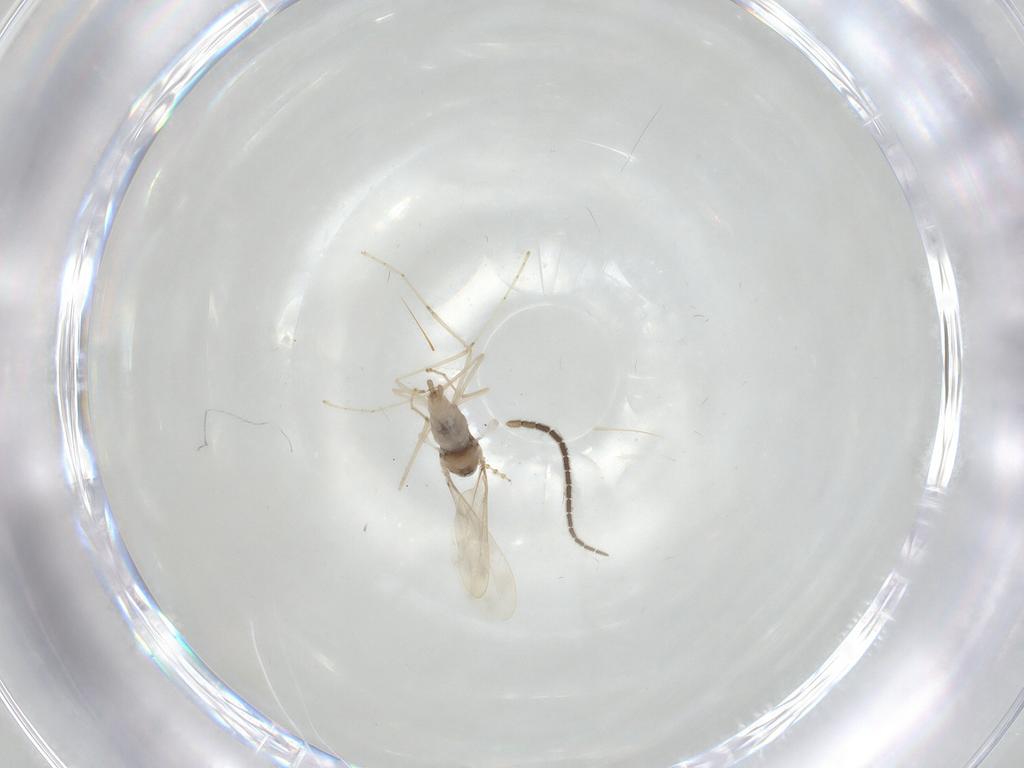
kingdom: Animalia
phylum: Arthropoda
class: Insecta
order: Diptera
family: Cecidomyiidae
